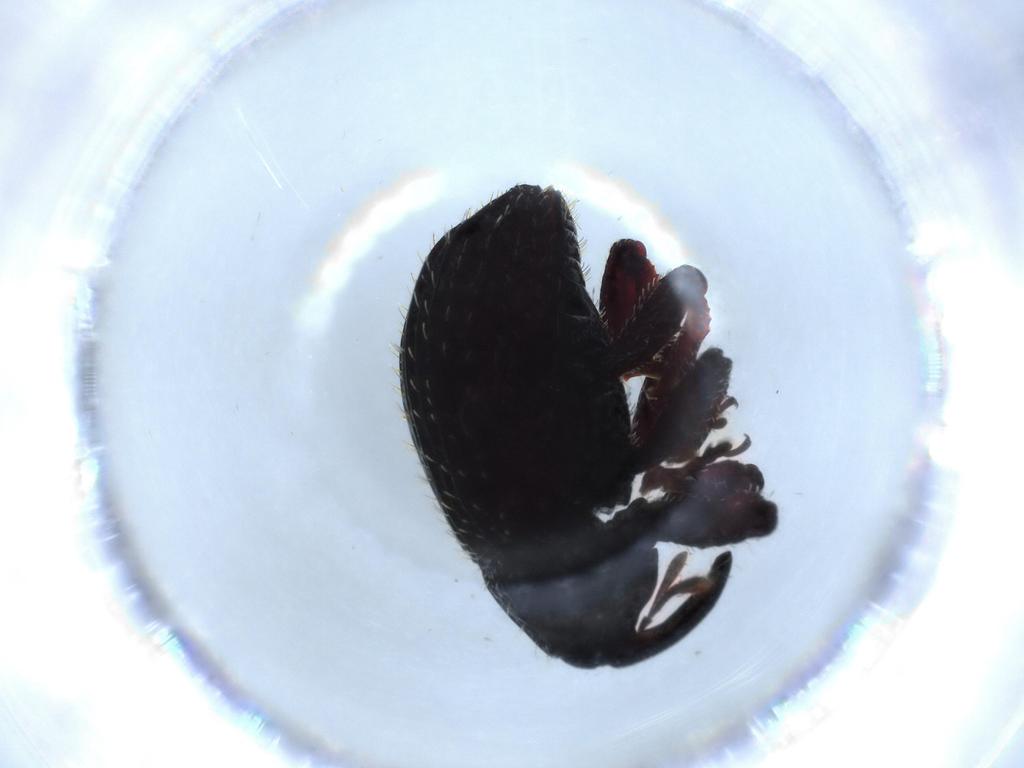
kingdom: Animalia
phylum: Arthropoda
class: Insecta
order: Coleoptera
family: Bostrichidae
